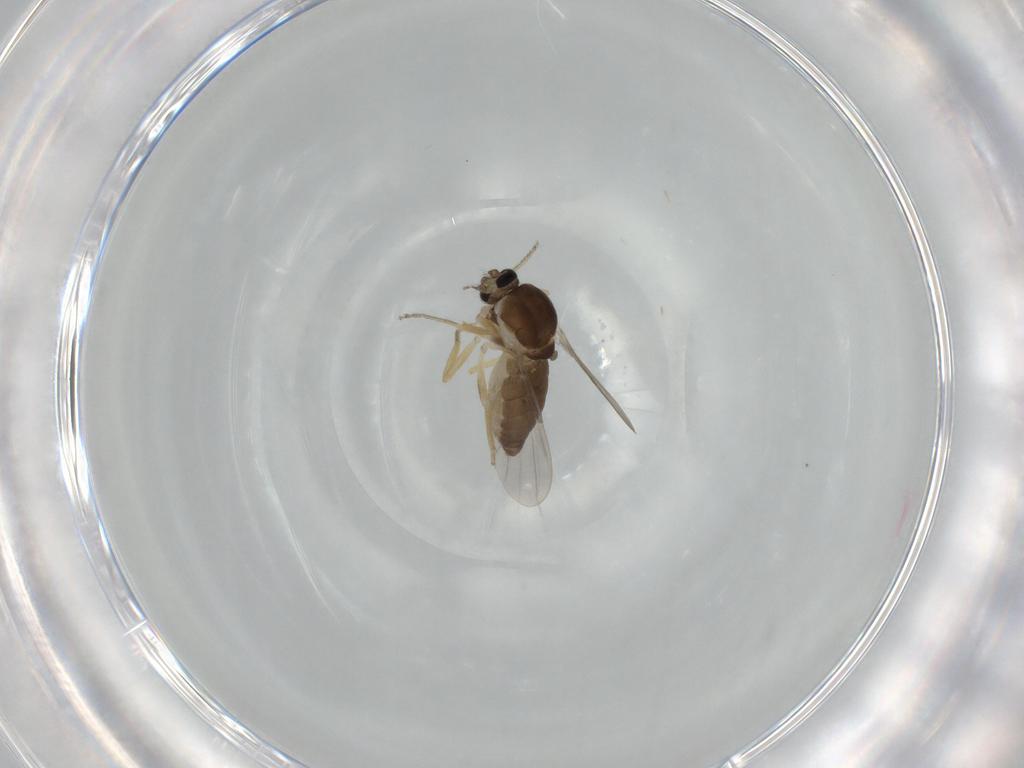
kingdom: Animalia
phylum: Arthropoda
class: Insecta
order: Diptera
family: Ceratopogonidae
